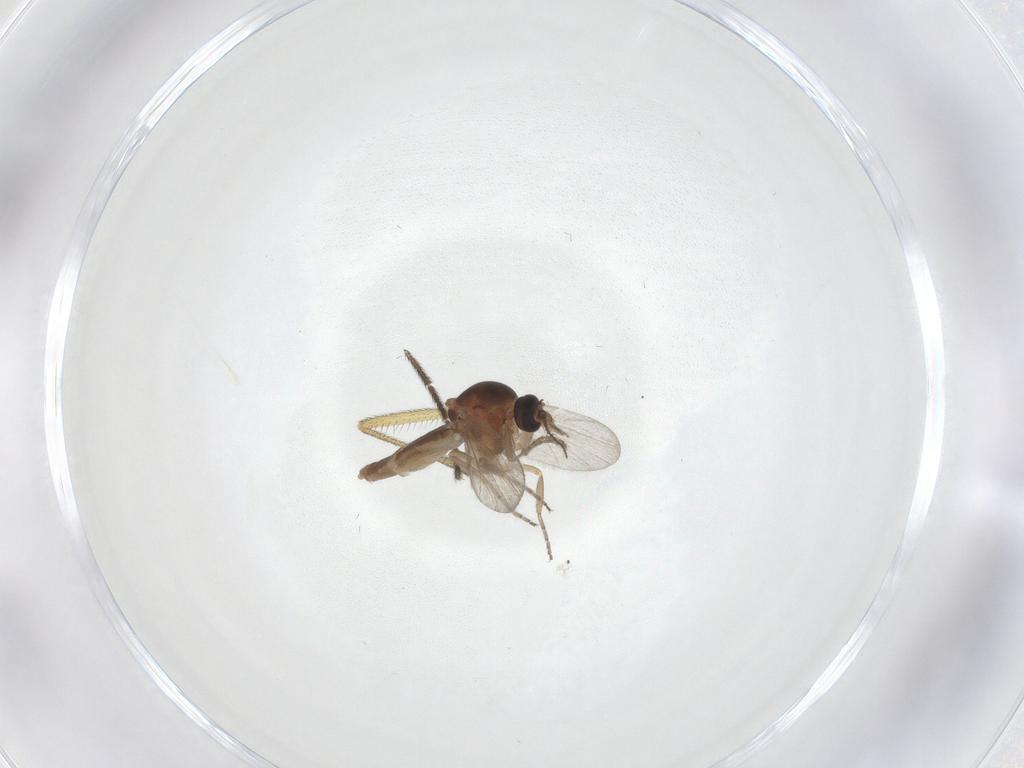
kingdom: Animalia
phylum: Arthropoda
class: Insecta
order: Diptera
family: Ceratopogonidae
